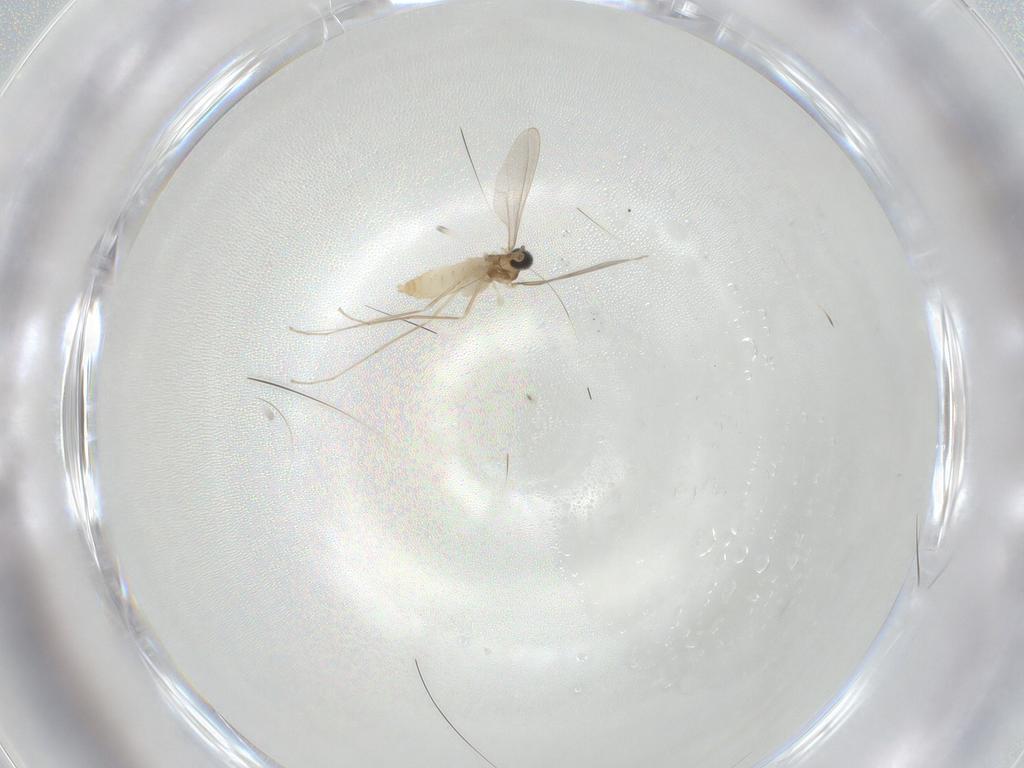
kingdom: Animalia
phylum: Arthropoda
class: Insecta
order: Diptera
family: Cecidomyiidae
